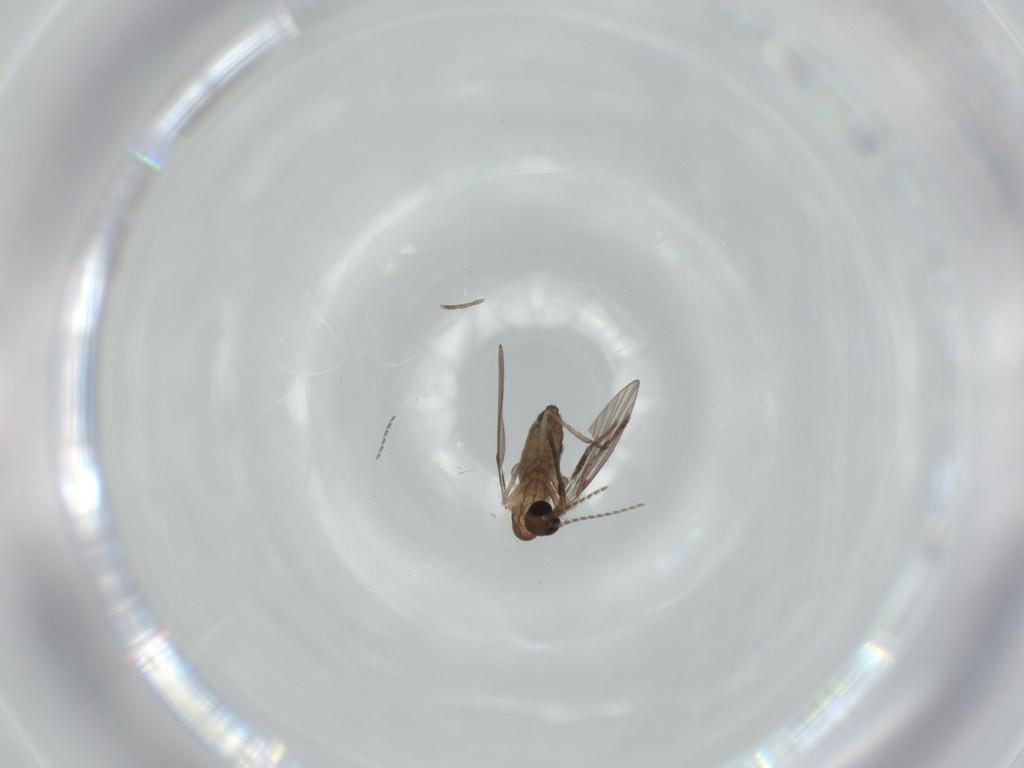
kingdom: Animalia
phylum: Arthropoda
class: Insecta
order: Diptera
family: Psychodidae
